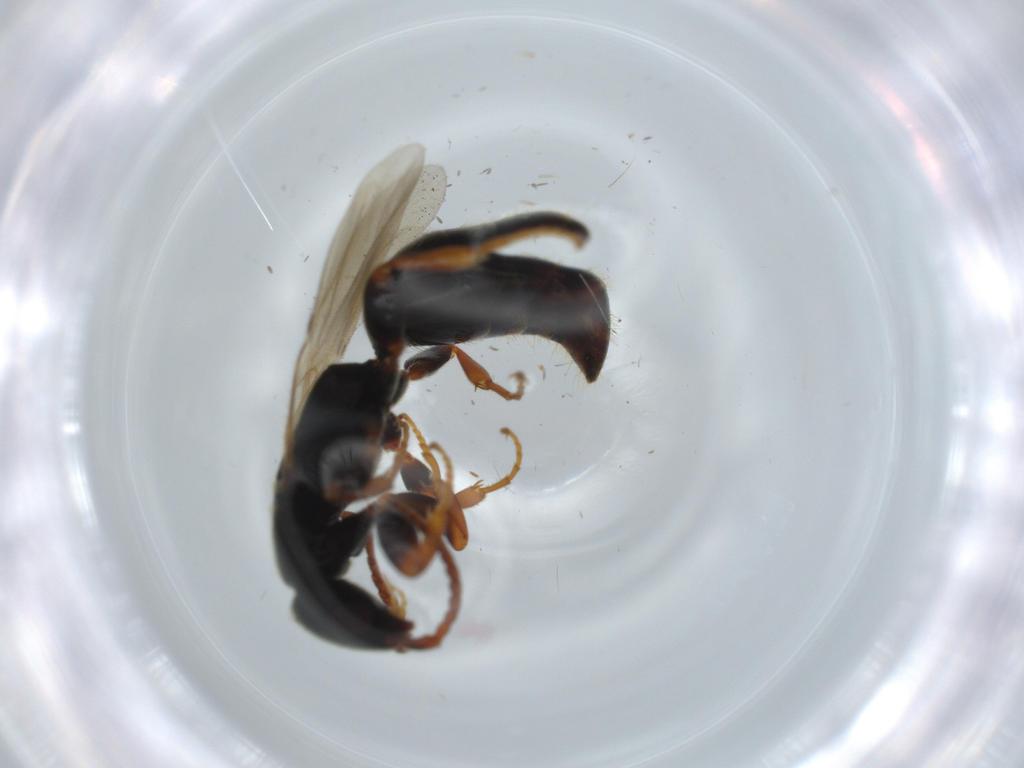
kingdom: Animalia
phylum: Arthropoda
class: Insecta
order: Hymenoptera
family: Bethylidae
